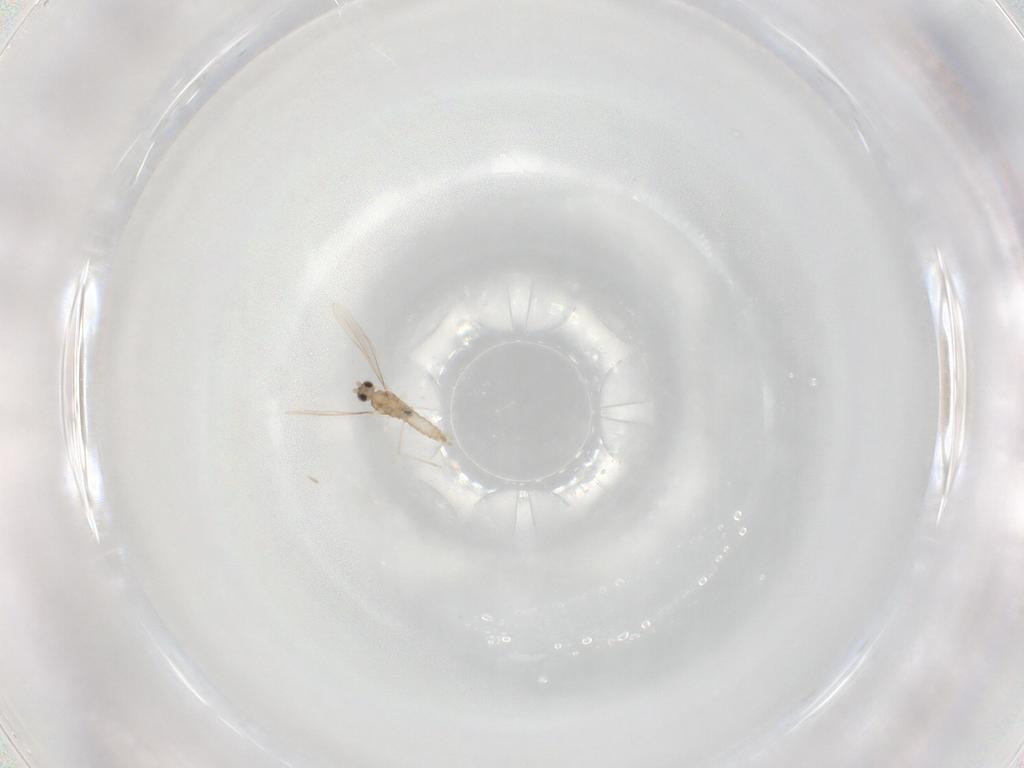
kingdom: Animalia
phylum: Arthropoda
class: Insecta
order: Diptera
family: Cecidomyiidae
